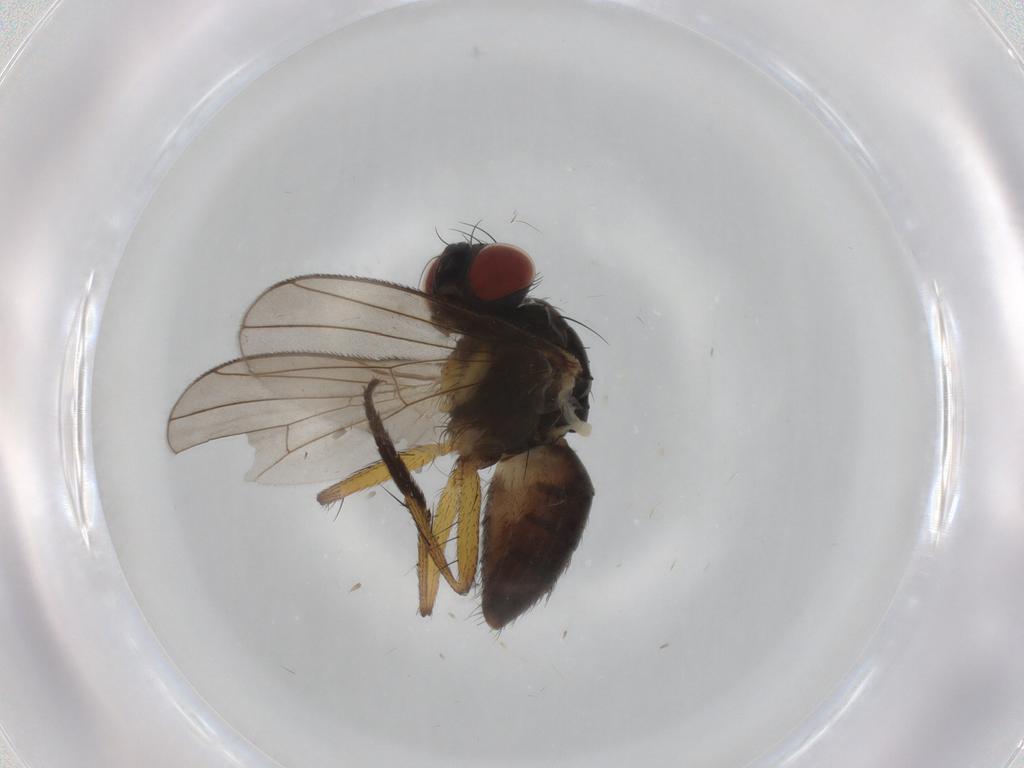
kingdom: Animalia
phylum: Arthropoda
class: Insecta
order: Diptera
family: Muscidae
